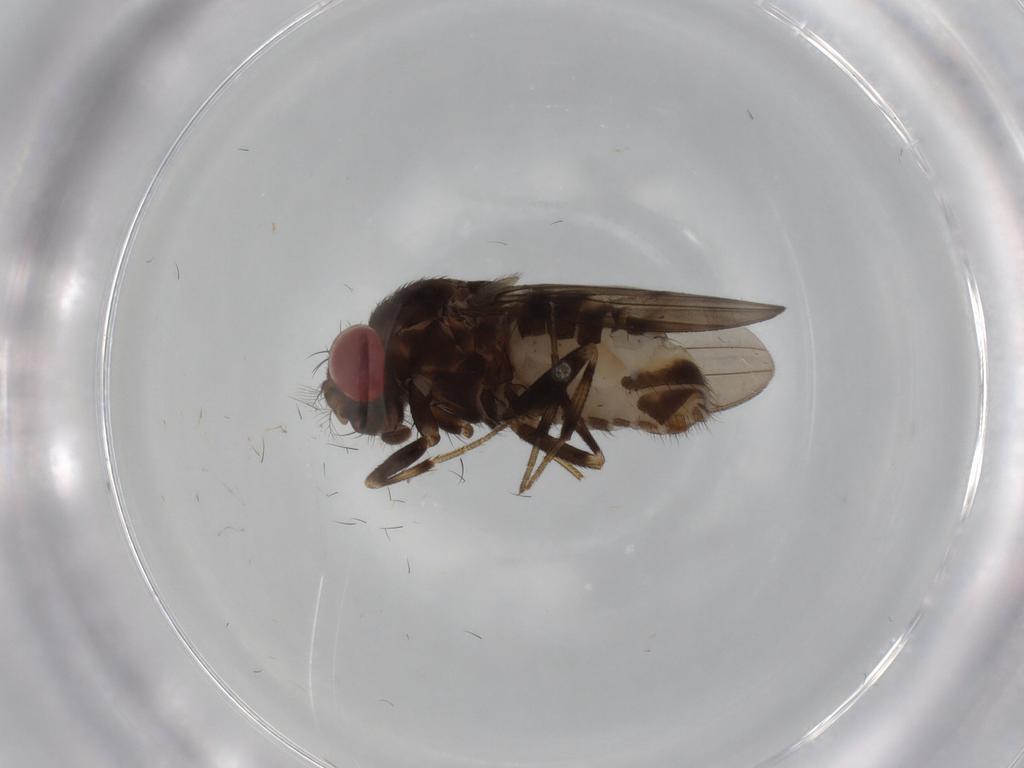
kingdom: Animalia
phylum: Arthropoda
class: Insecta
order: Diptera
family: Drosophilidae
